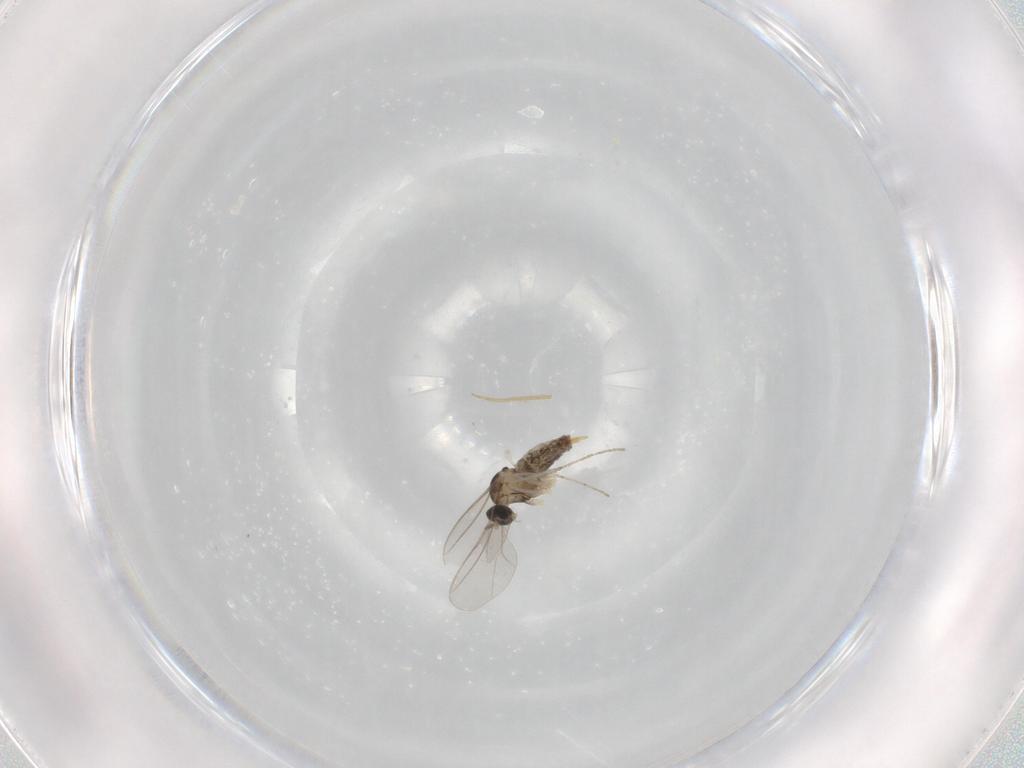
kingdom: Animalia
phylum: Arthropoda
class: Insecta
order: Diptera
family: Cecidomyiidae
